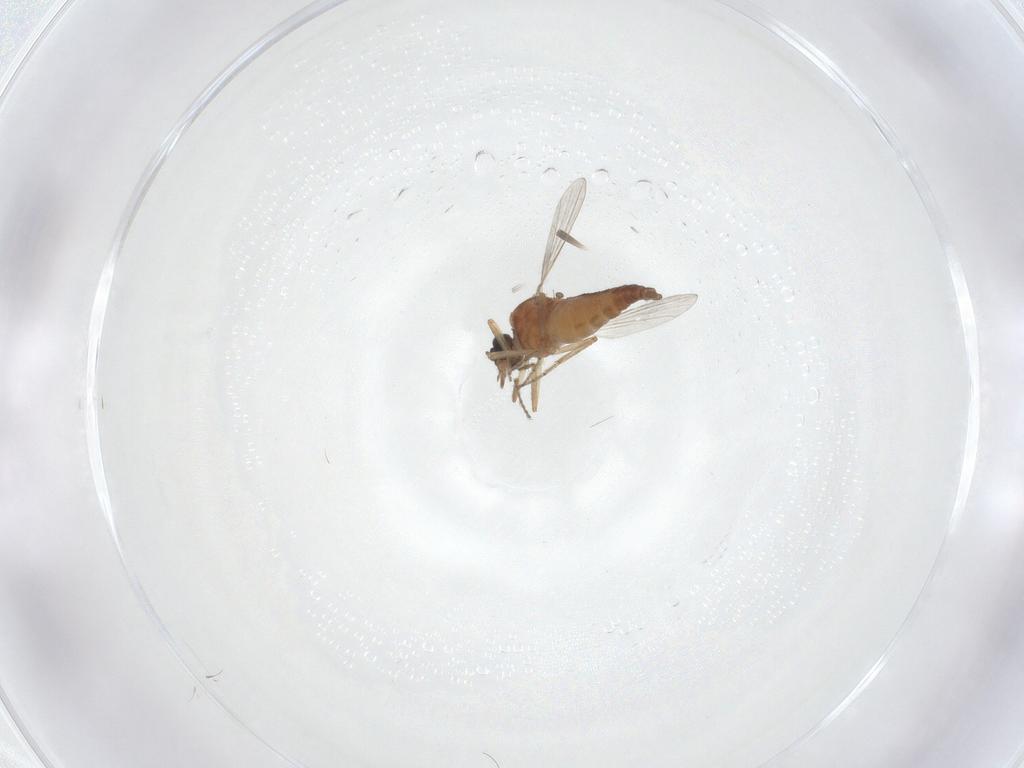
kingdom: Animalia
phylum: Arthropoda
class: Insecta
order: Diptera
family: Ceratopogonidae
